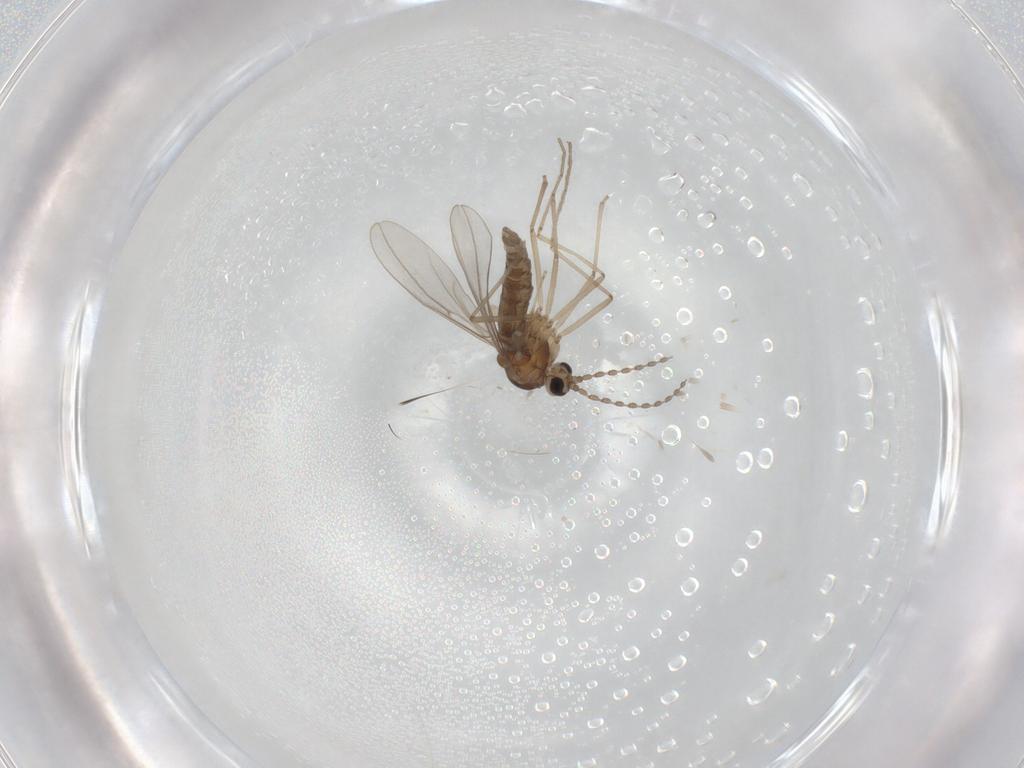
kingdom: Animalia
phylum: Arthropoda
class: Insecta
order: Diptera
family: Cecidomyiidae
